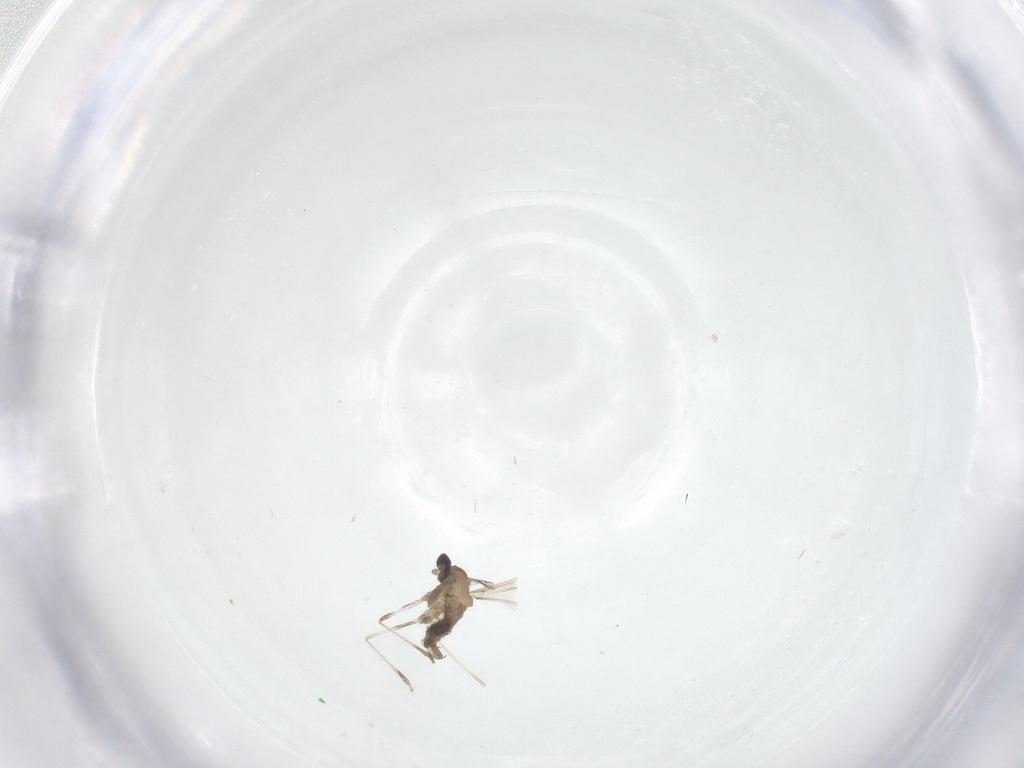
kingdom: Animalia
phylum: Arthropoda
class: Insecta
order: Diptera
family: Cecidomyiidae
